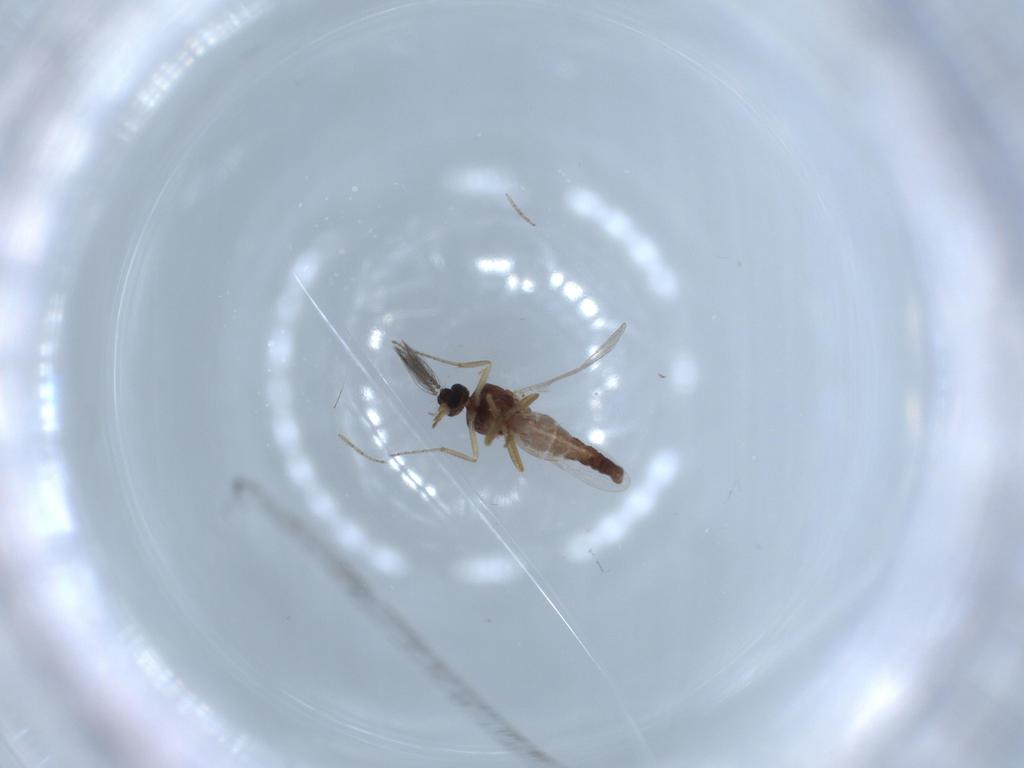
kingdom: Animalia
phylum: Arthropoda
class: Insecta
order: Diptera
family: Ceratopogonidae
